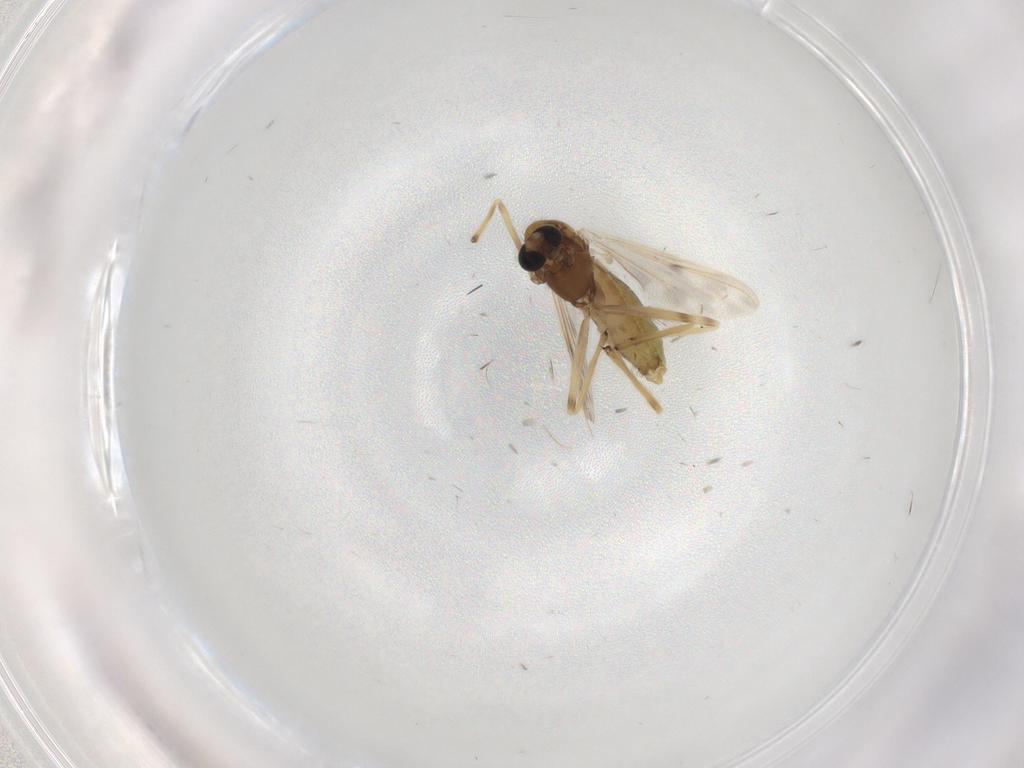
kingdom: Animalia
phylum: Arthropoda
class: Insecta
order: Diptera
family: Chironomidae
